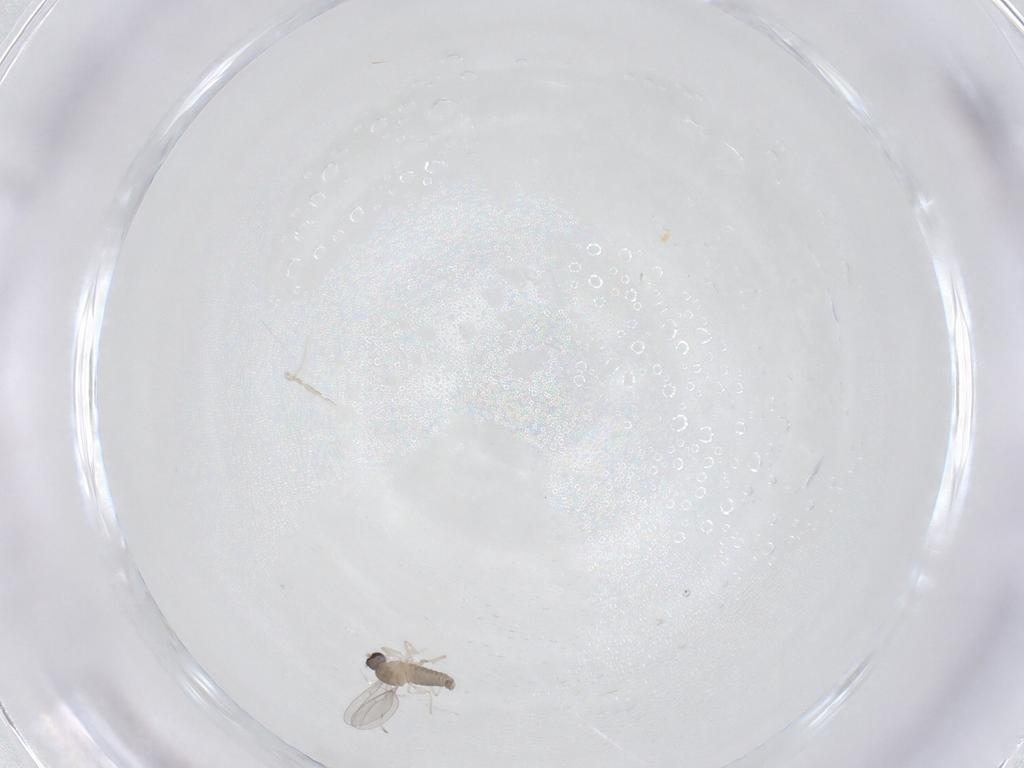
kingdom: Animalia
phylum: Arthropoda
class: Insecta
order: Diptera
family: Cecidomyiidae
